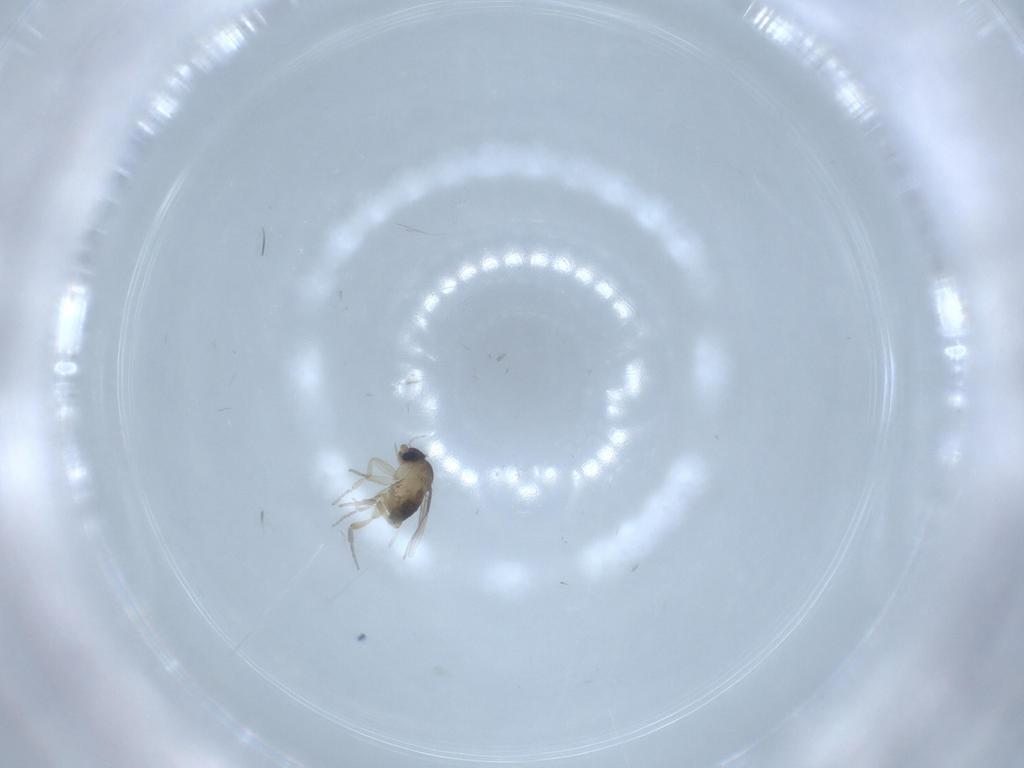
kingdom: Animalia
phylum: Arthropoda
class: Insecta
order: Diptera
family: Phoridae
